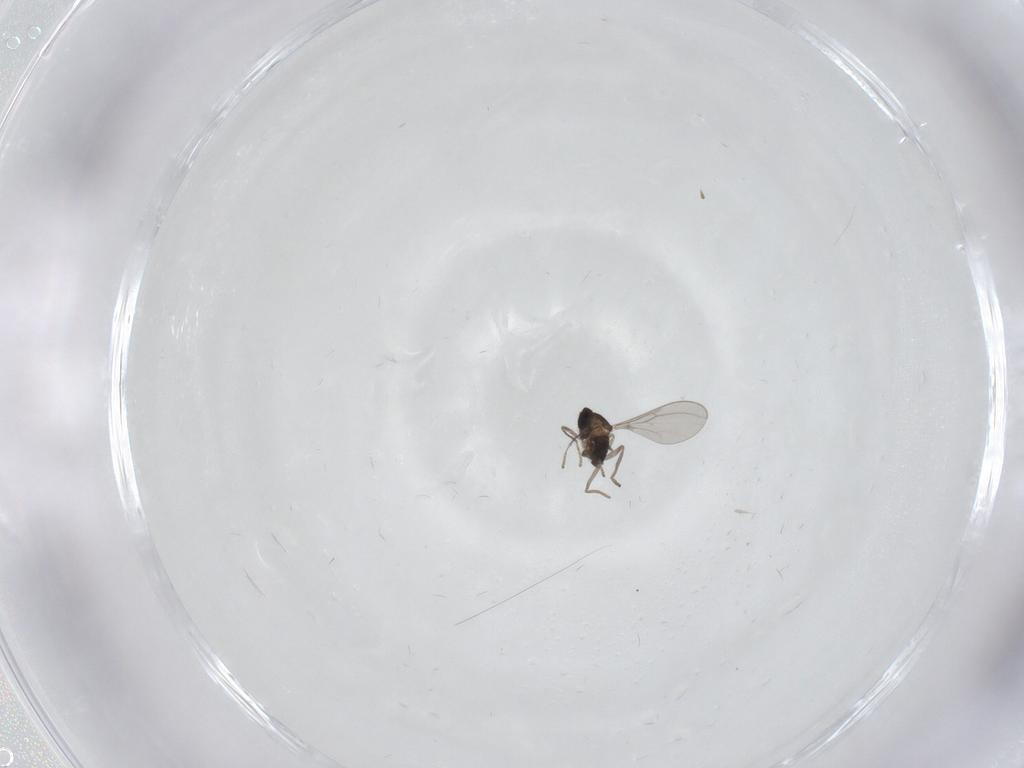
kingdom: Animalia
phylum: Arthropoda
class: Insecta
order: Diptera
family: Cecidomyiidae
